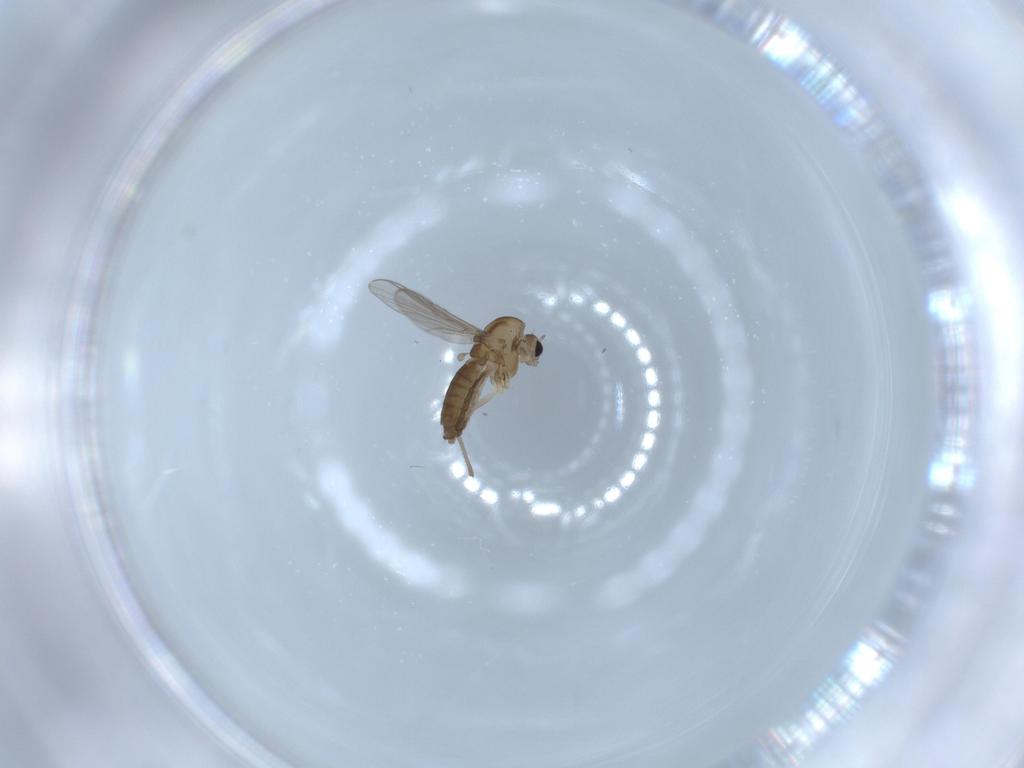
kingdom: Animalia
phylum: Arthropoda
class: Insecta
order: Diptera
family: Chironomidae
